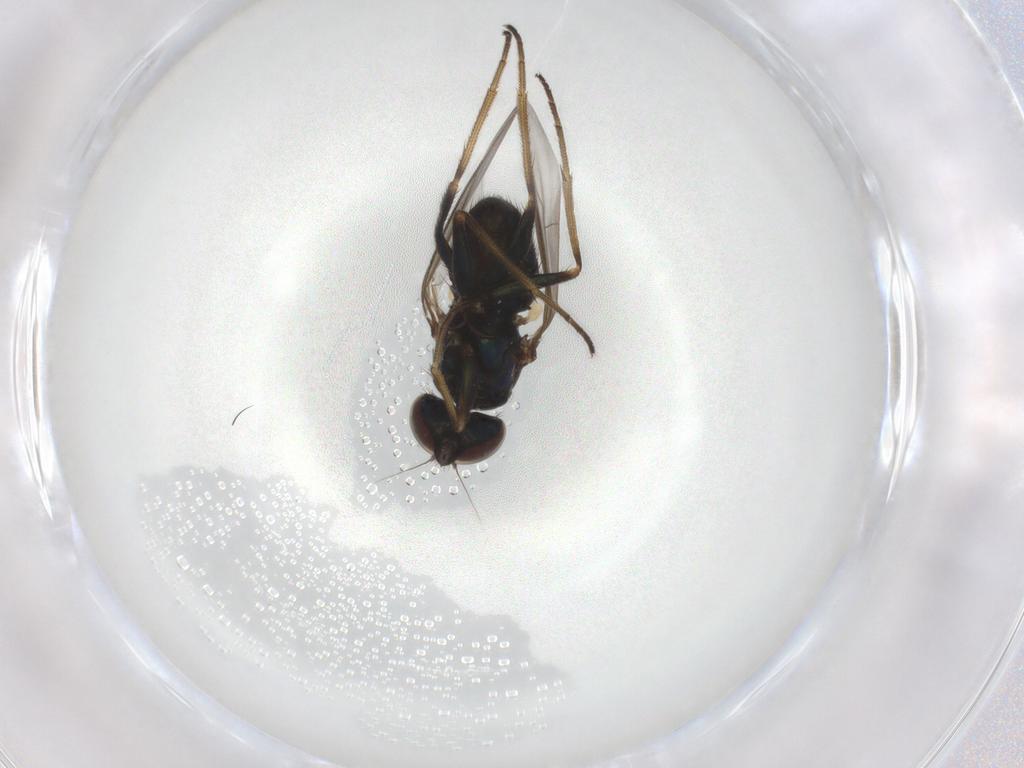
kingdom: Animalia
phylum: Arthropoda
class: Insecta
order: Diptera
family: Dolichopodidae
